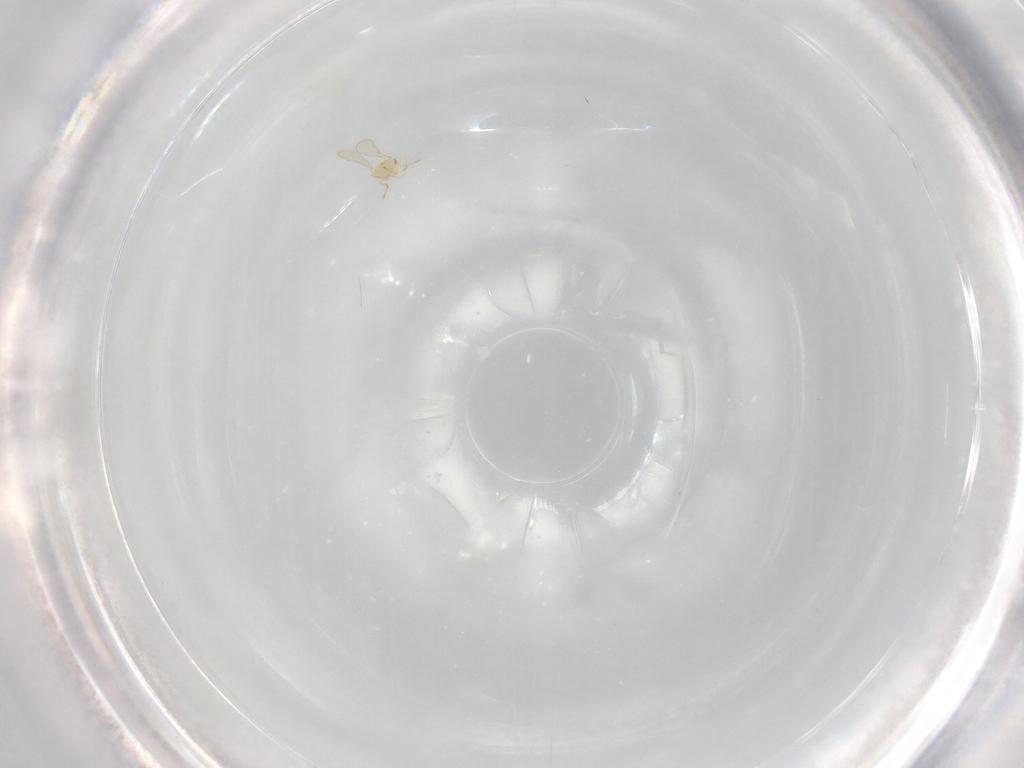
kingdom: Animalia
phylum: Arthropoda
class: Insecta
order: Hymenoptera
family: Aphelinidae
